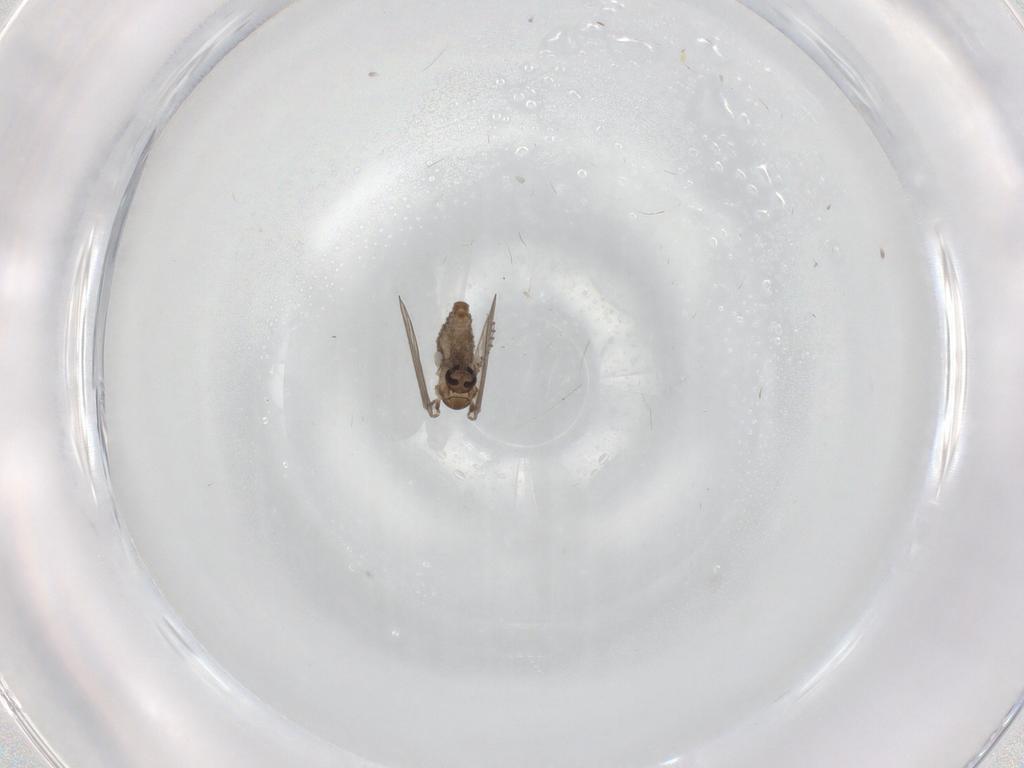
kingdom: Animalia
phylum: Arthropoda
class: Insecta
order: Diptera
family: Psychodidae
